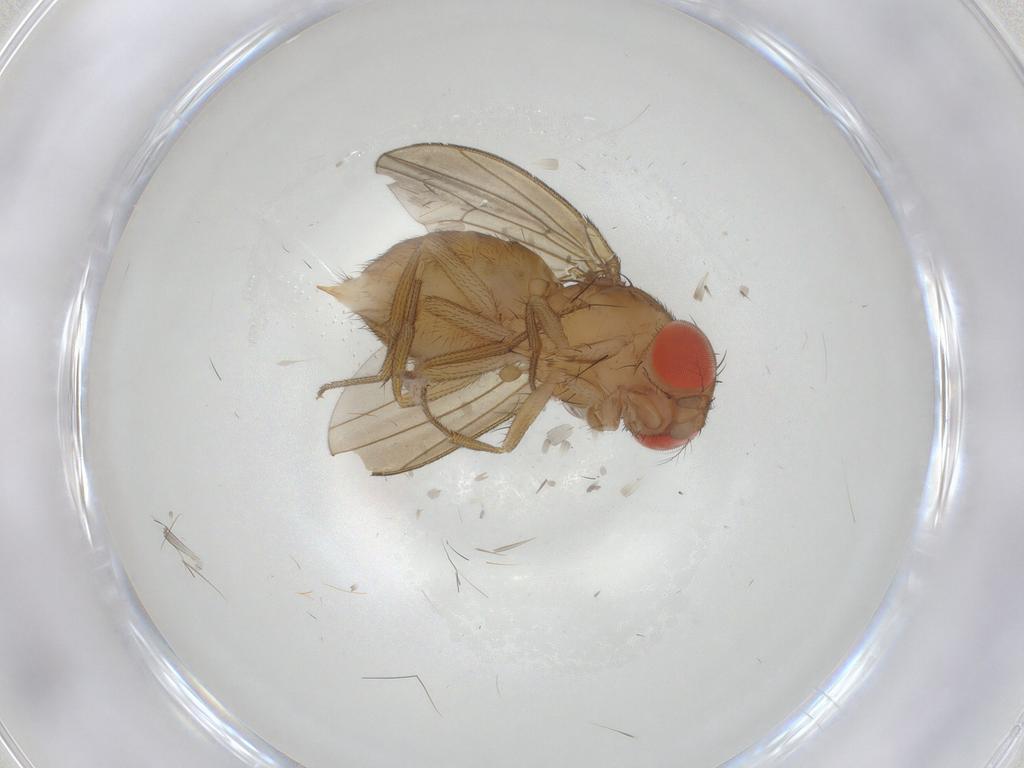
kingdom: Animalia
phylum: Arthropoda
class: Insecta
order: Diptera
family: Drosophilidae
